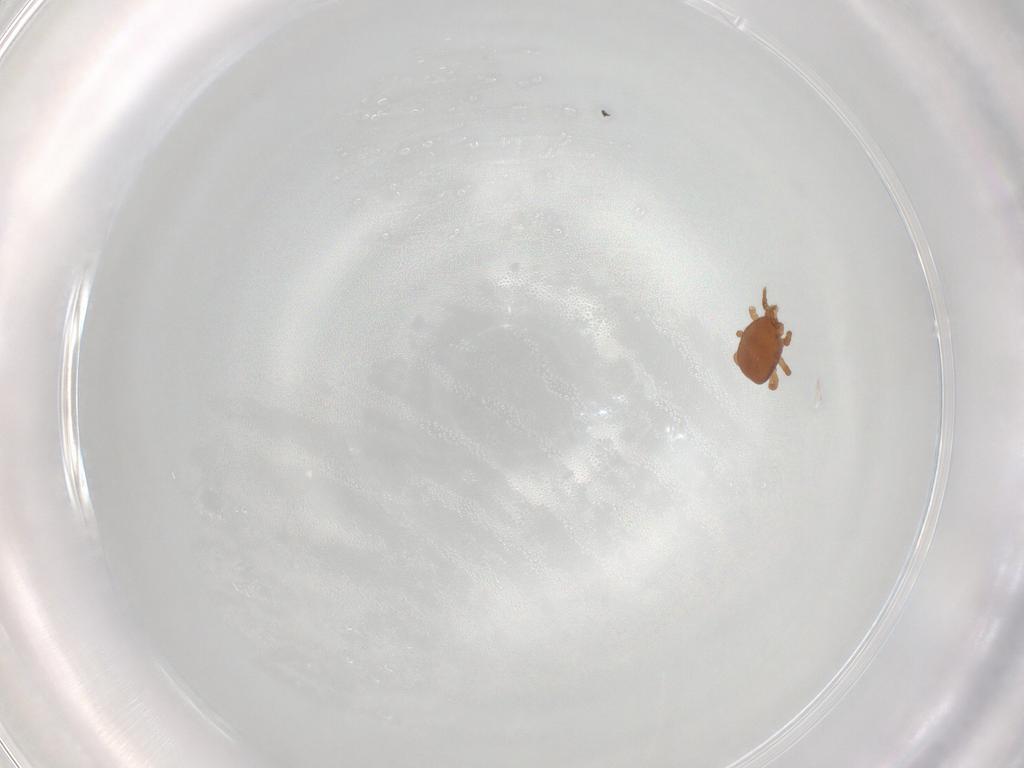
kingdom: Animalia
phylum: Arthropoda
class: Arachnida
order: Mesostigmata
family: Eviphididae
